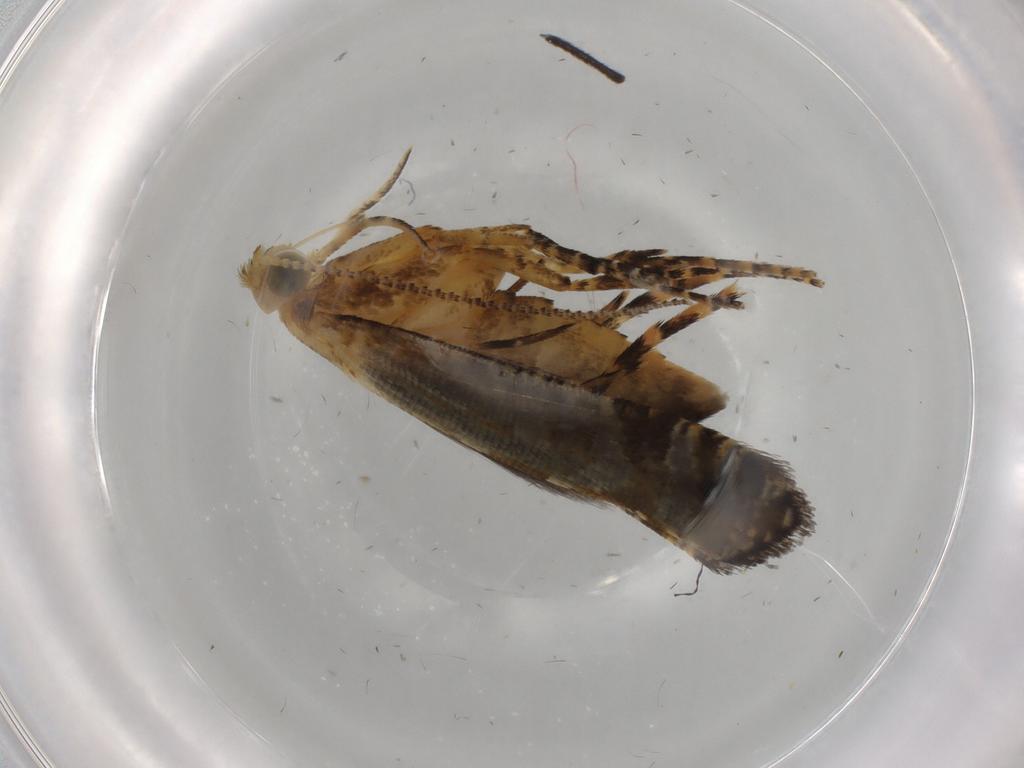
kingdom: Animalia
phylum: Arthropoda
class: Insecta
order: Lepidoptera
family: Argyresthiidae
